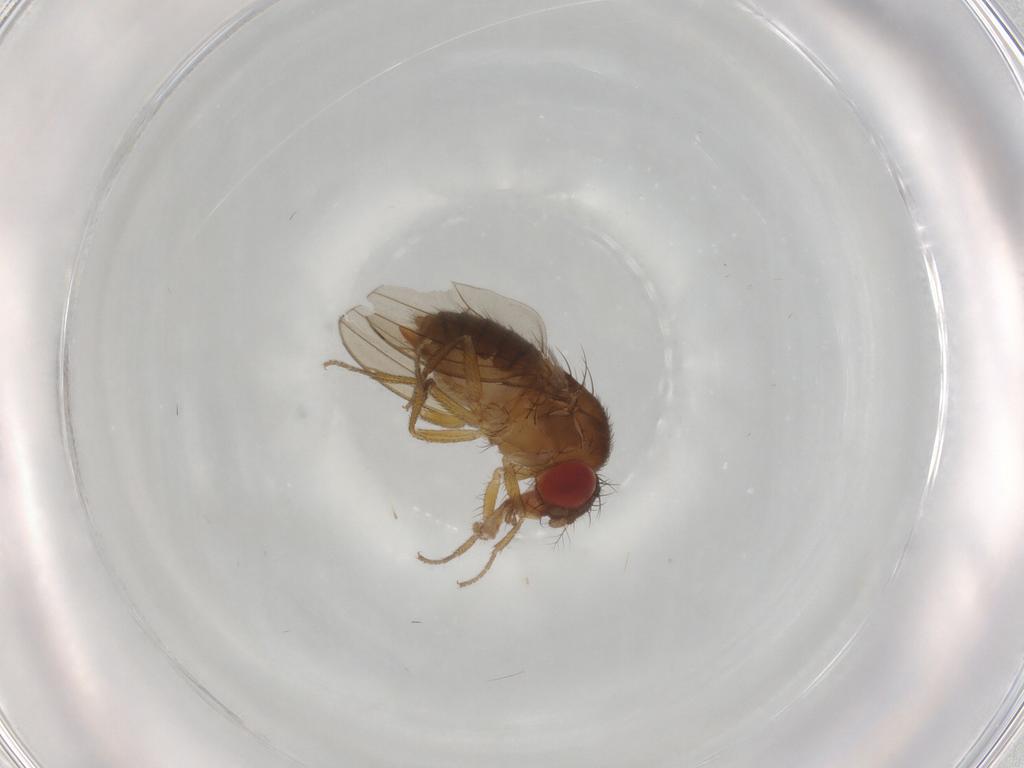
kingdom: Animalia
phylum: Arthropoda
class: Insecta
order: Diptera
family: Drosophilidae
